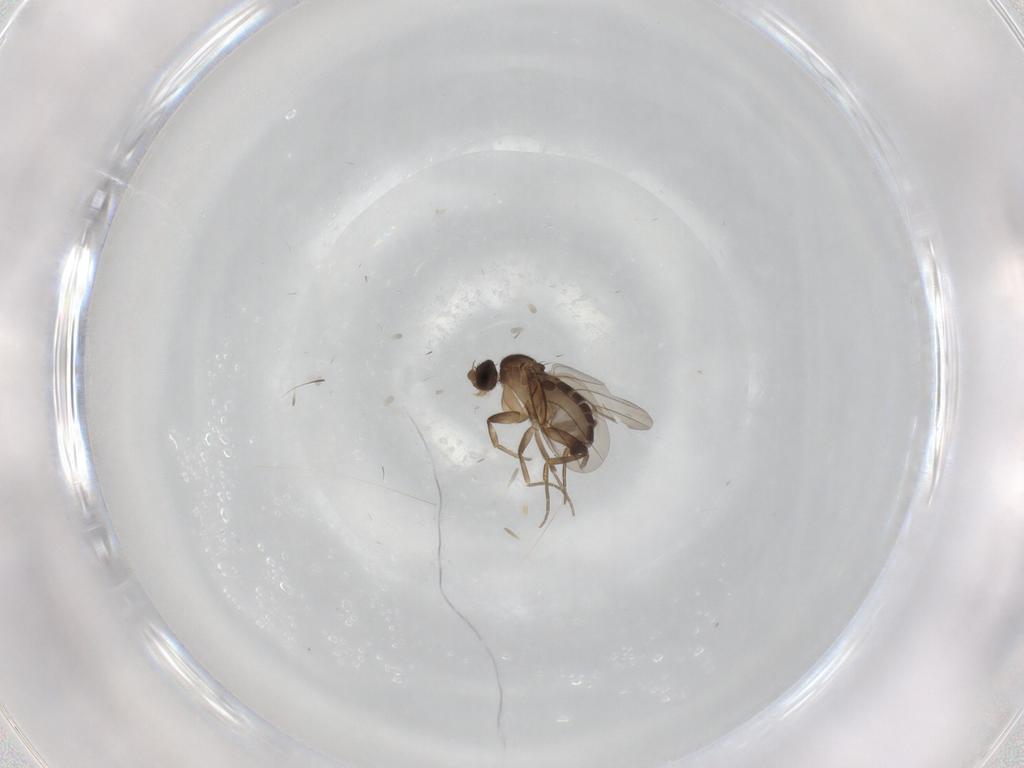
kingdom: Animalia
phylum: Arthropoda
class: Insecta
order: Diptera
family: Phoridae
